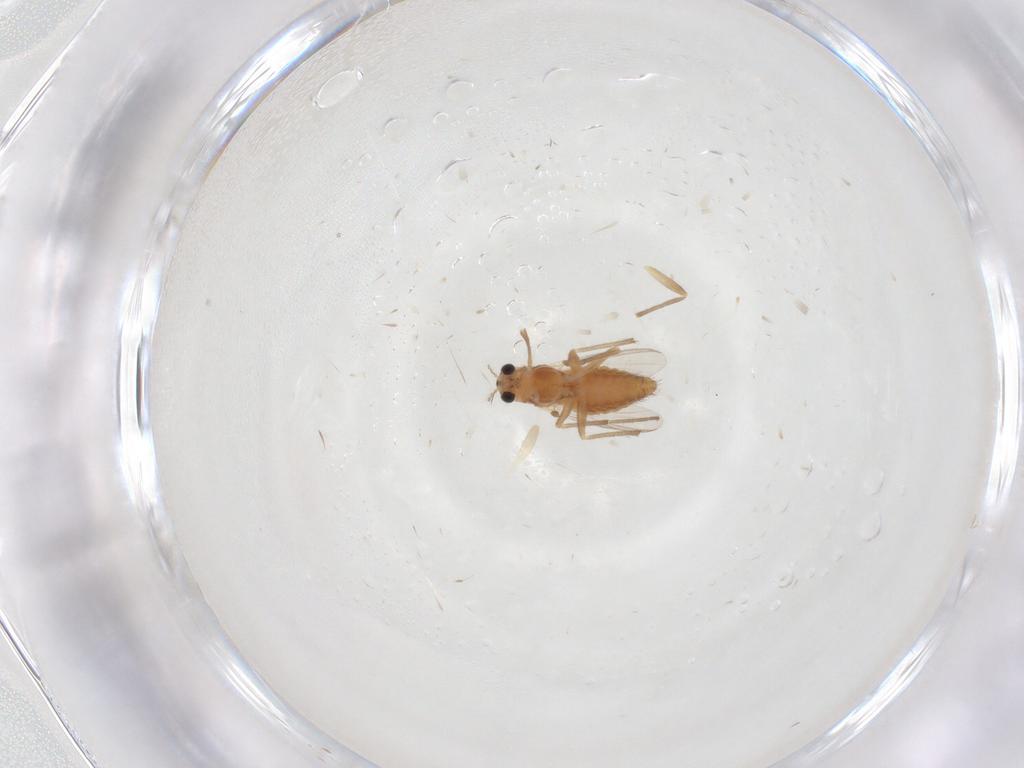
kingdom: Animalia
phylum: Arthropoda
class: Insecta
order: Diptera
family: Chironomidae
